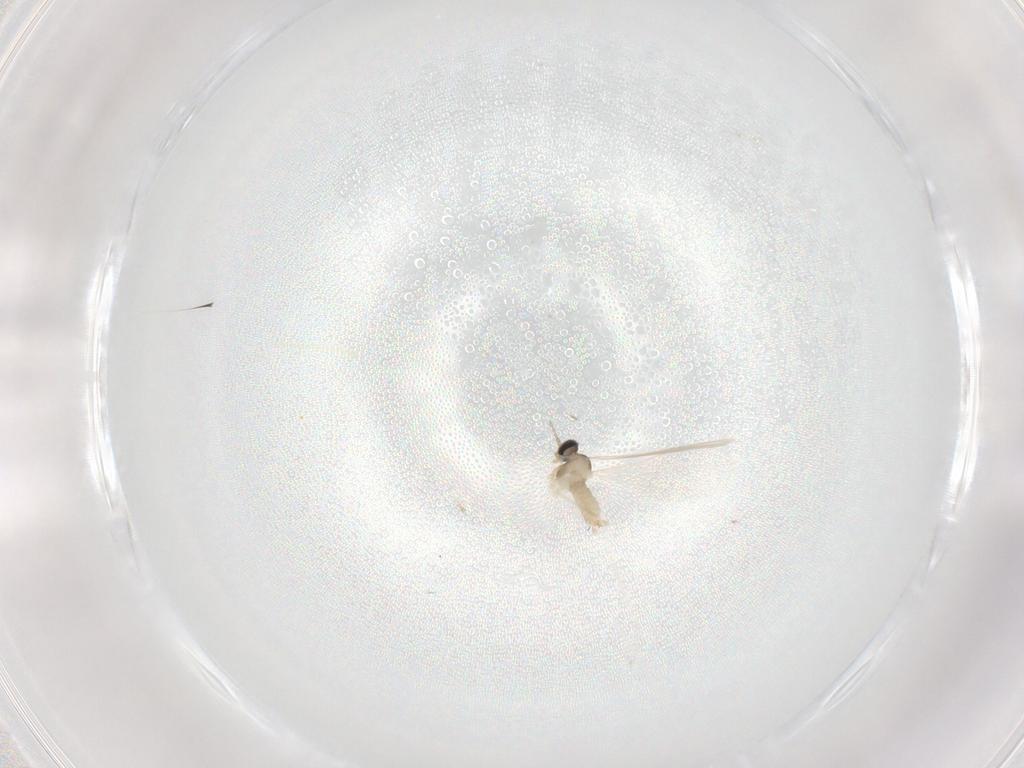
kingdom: Animalia
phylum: Arthropoda
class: Insecta
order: Diptera
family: Cecidomyiidae
